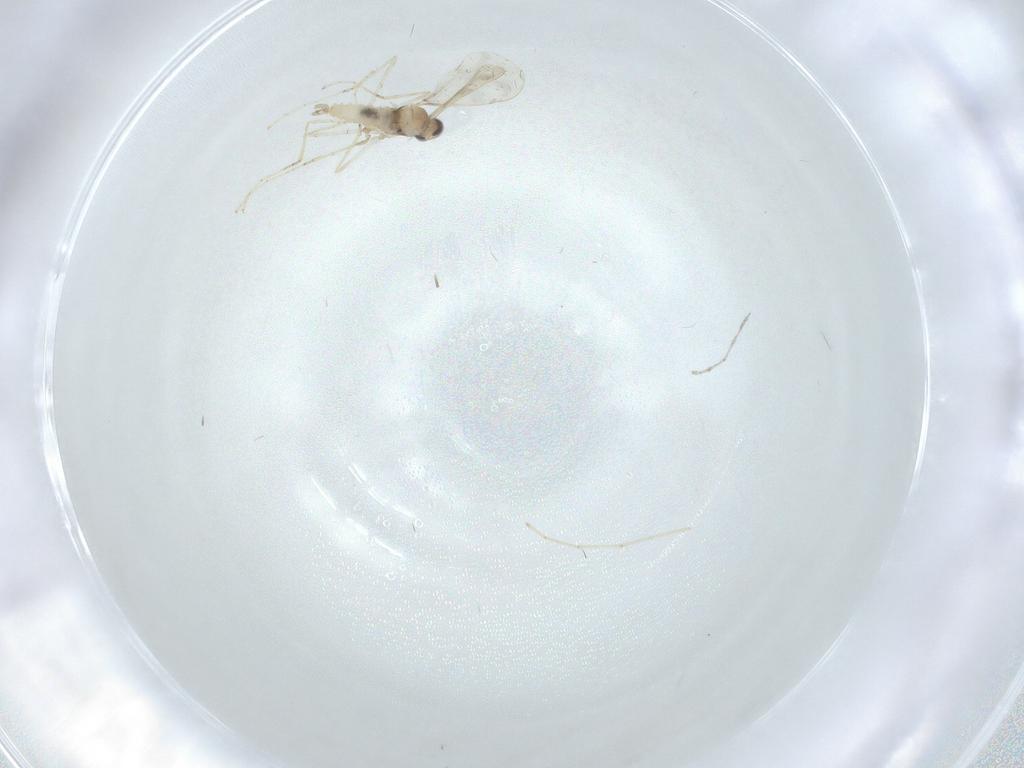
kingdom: Animalia
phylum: Arthropoda
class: Insecta
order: Diptera
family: Cecidomyiidae
